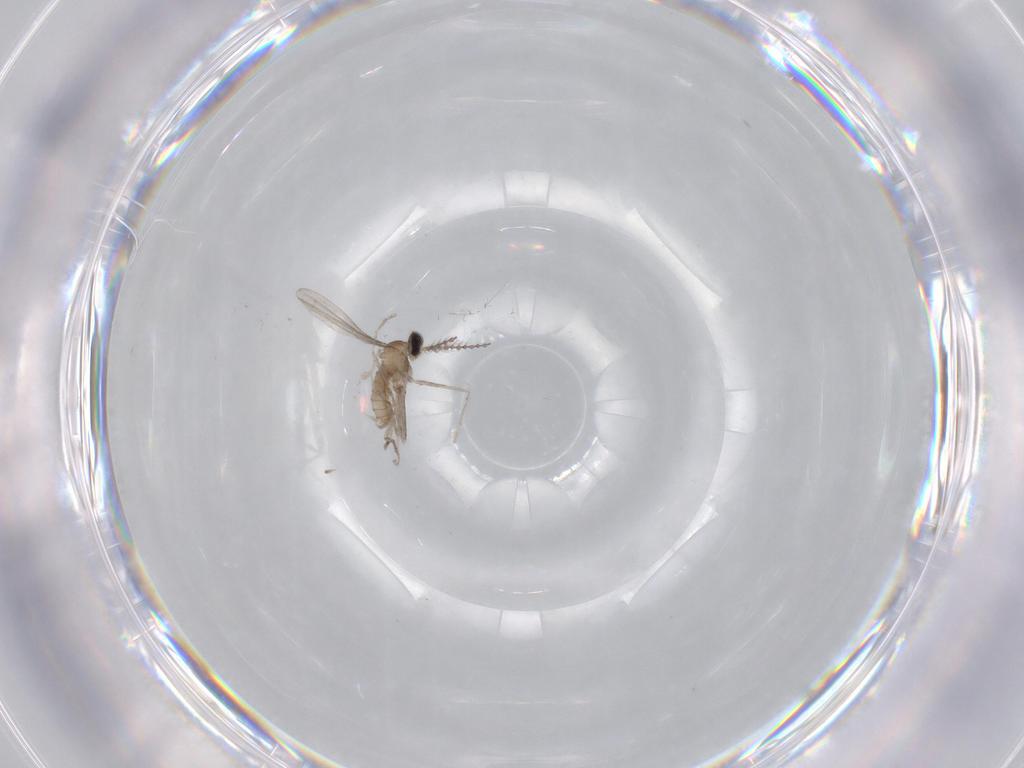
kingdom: Animalia
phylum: Arthropoda
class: Insecta
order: Diptera
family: Cecidomyiidae
